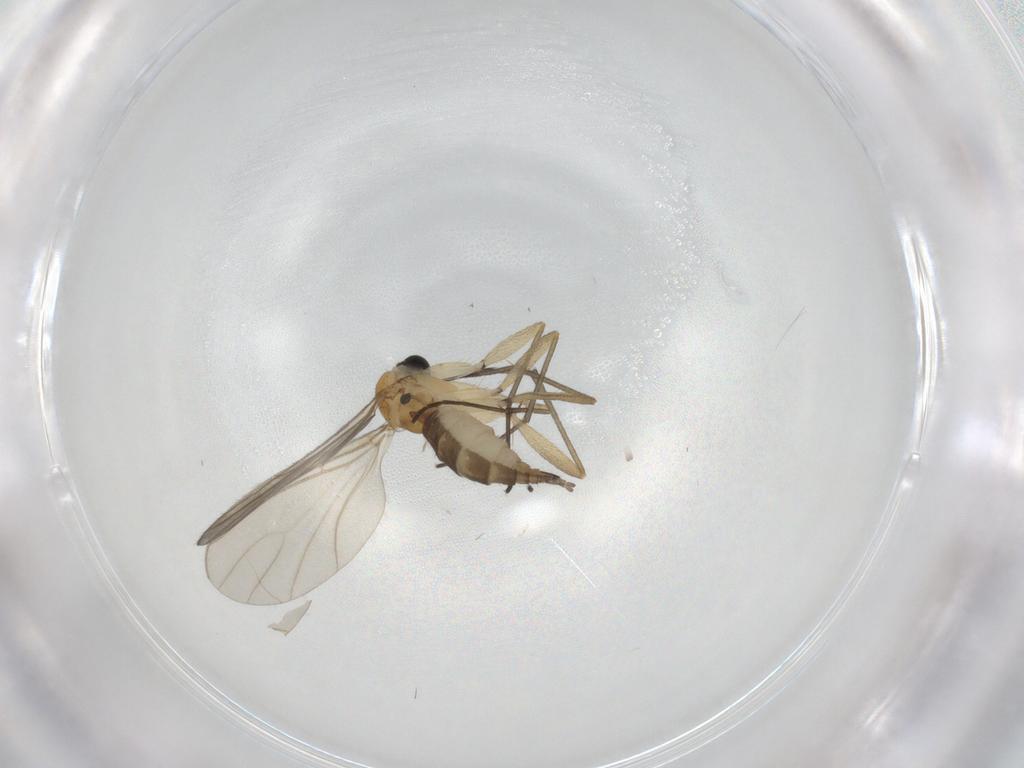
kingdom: Animalia
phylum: Arthropoda
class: Insecta
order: Diptera
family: Sciaridae
